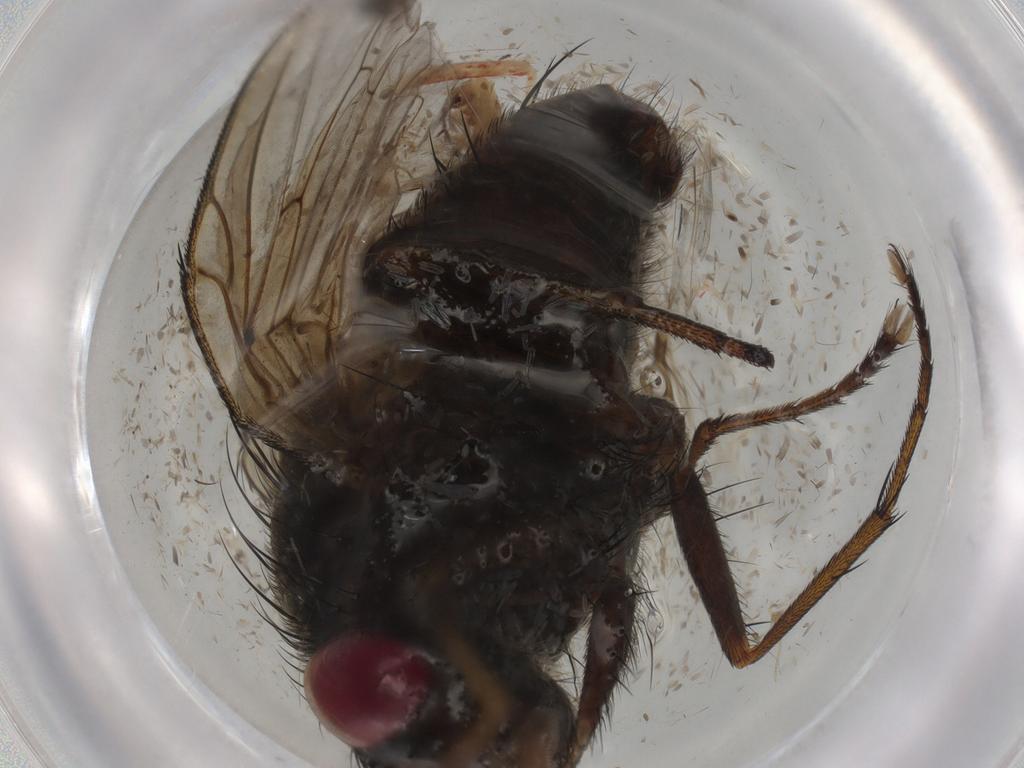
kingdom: Animalia
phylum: Arthropoda
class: Insecta
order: Diptera
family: Tachinidae
